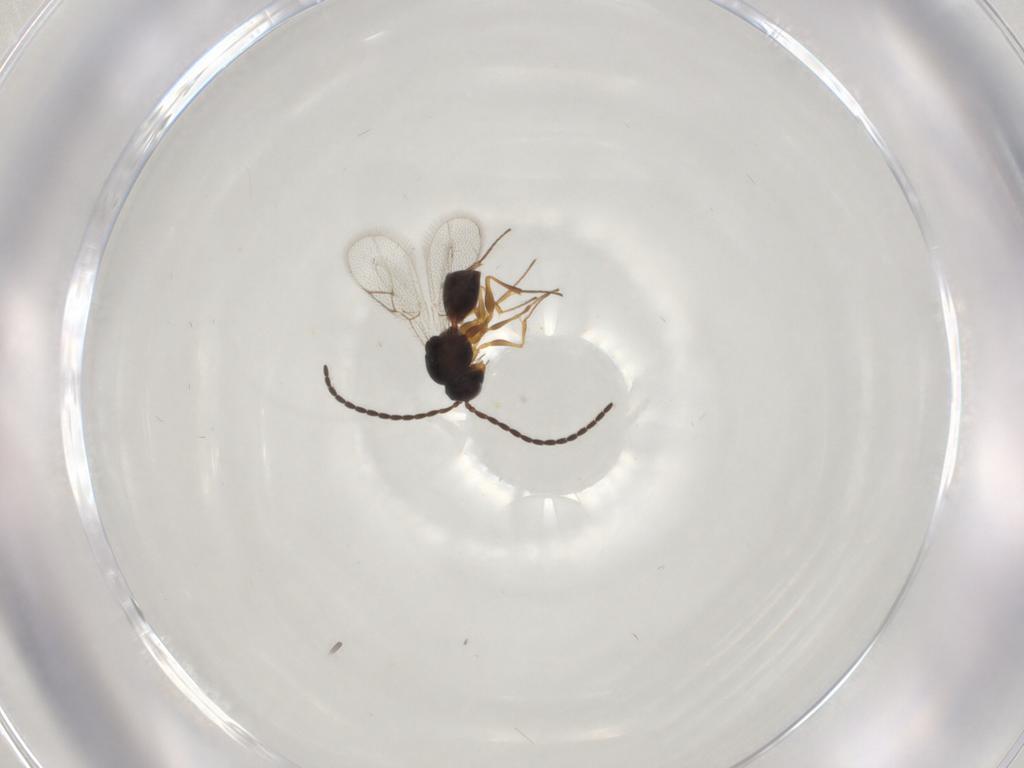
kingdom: Animalia
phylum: Arthropoda
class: Insecta
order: Hymenoptera
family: Figitidae
